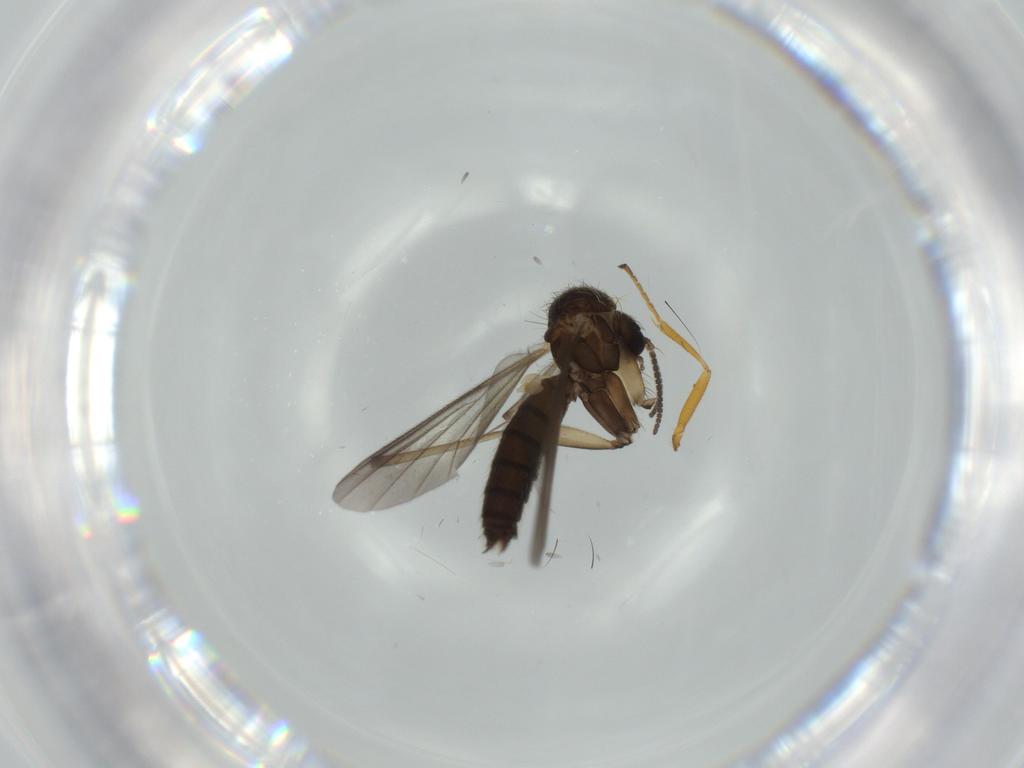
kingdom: Animalia
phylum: Arthropoda
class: Insecta
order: Diptera
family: Mycetophilidae
